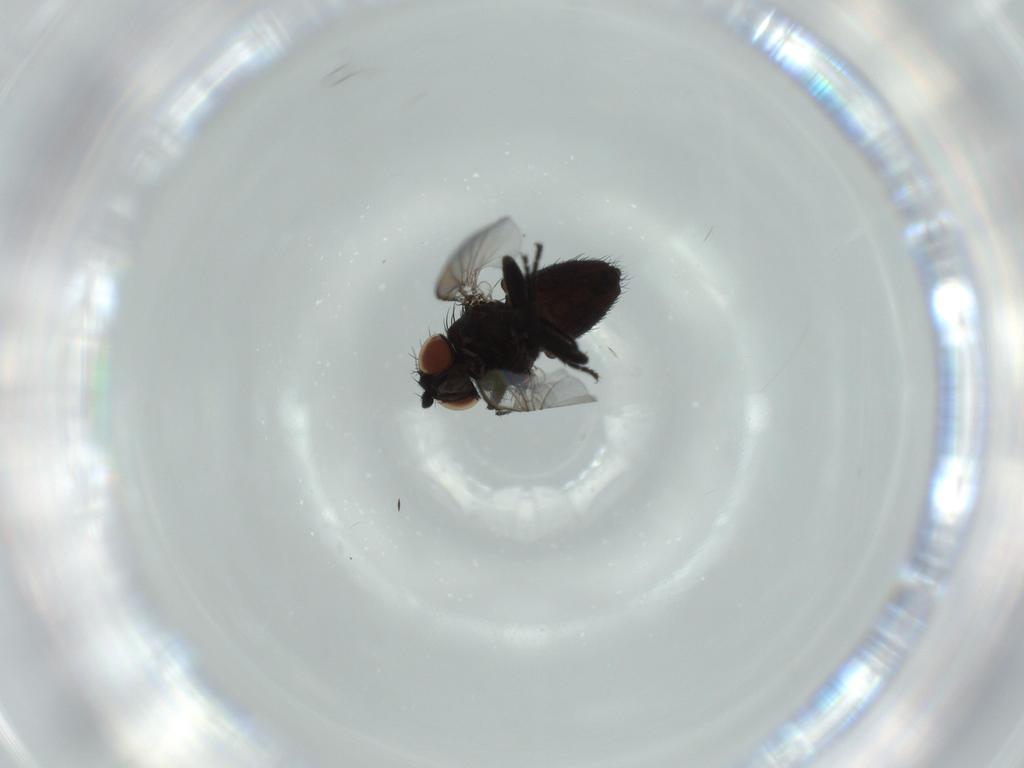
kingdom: Animalia
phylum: Arthropoda
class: Insecta
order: Diptera
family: Milichiidae
